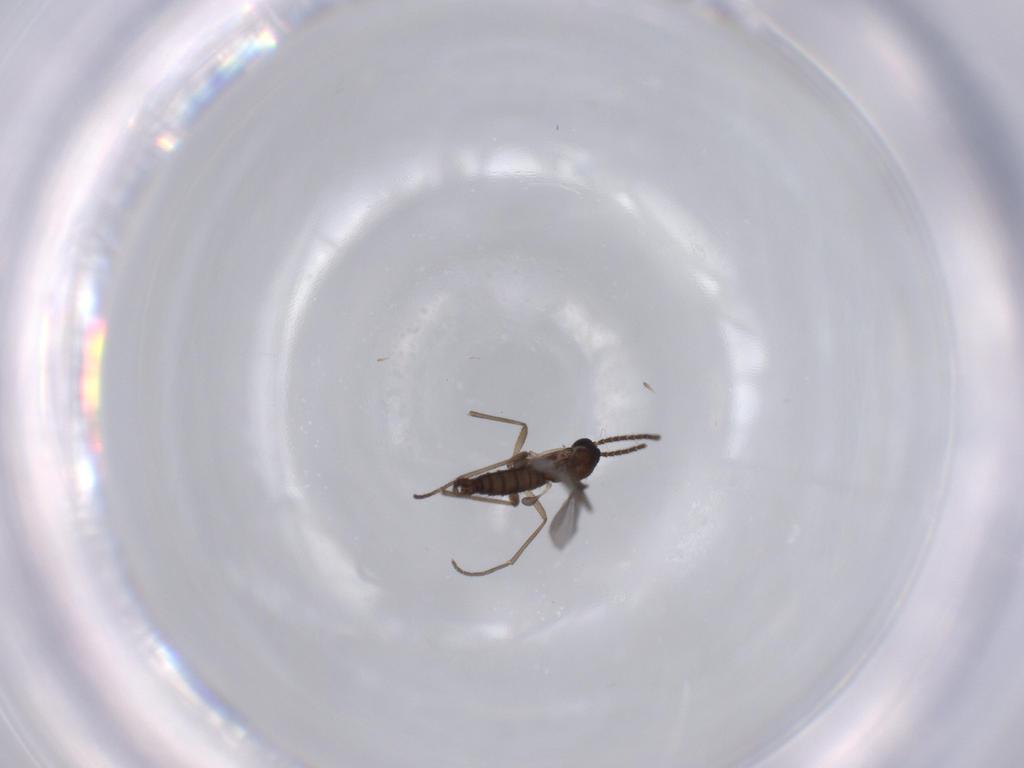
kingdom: Animalia
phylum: Arthropoda
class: Insecta
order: Diptera
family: Sciaridae
